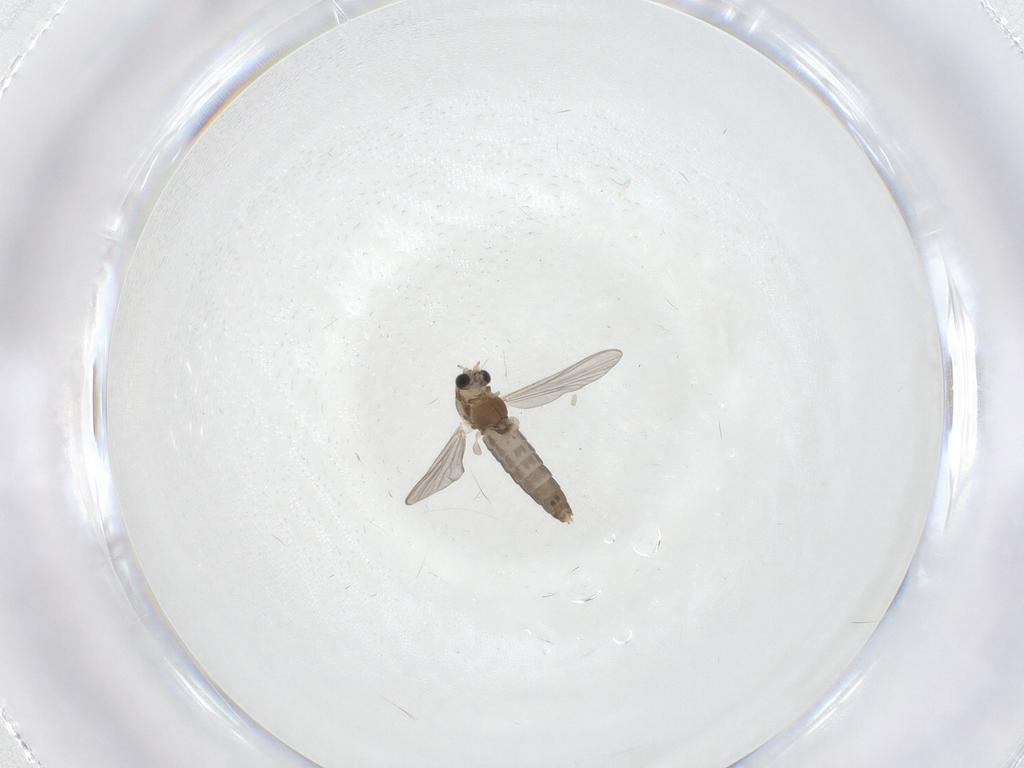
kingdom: Animalia
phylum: Arthropoda
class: Insecta
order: Diptera
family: Chironomidae
